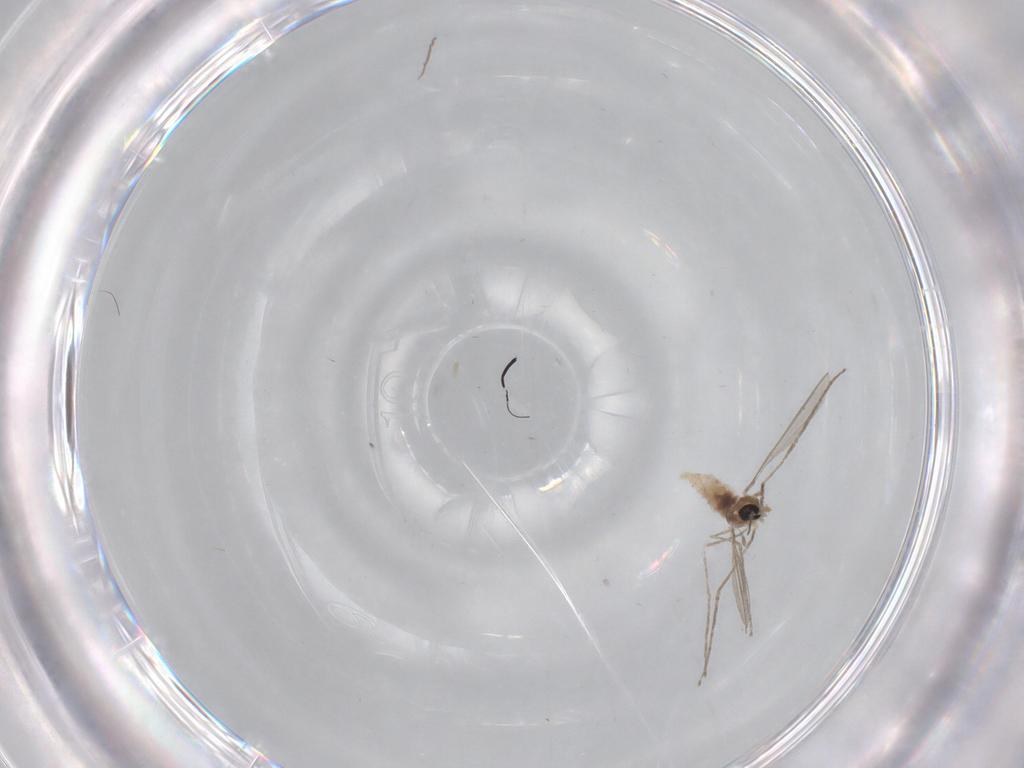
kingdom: Animalia
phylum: Arthropoda
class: Insecta
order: Diptera
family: Cecidomyiidae
